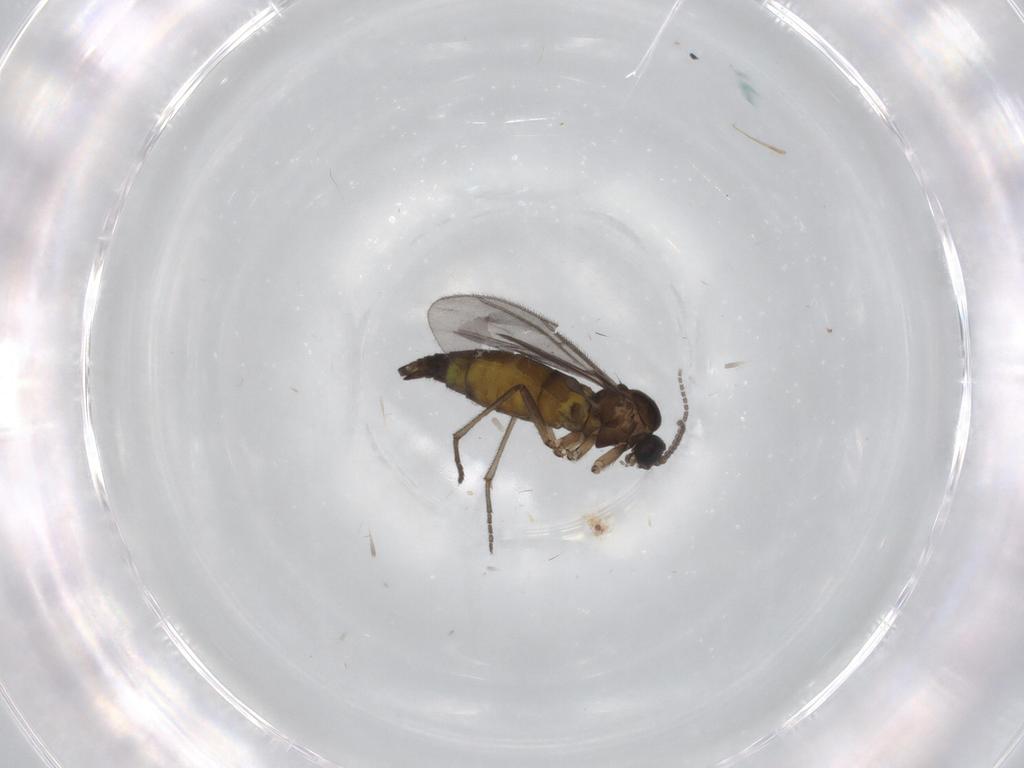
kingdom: Animalia
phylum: Arthropoda
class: Insecta
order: Diptera
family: Sciaridae
